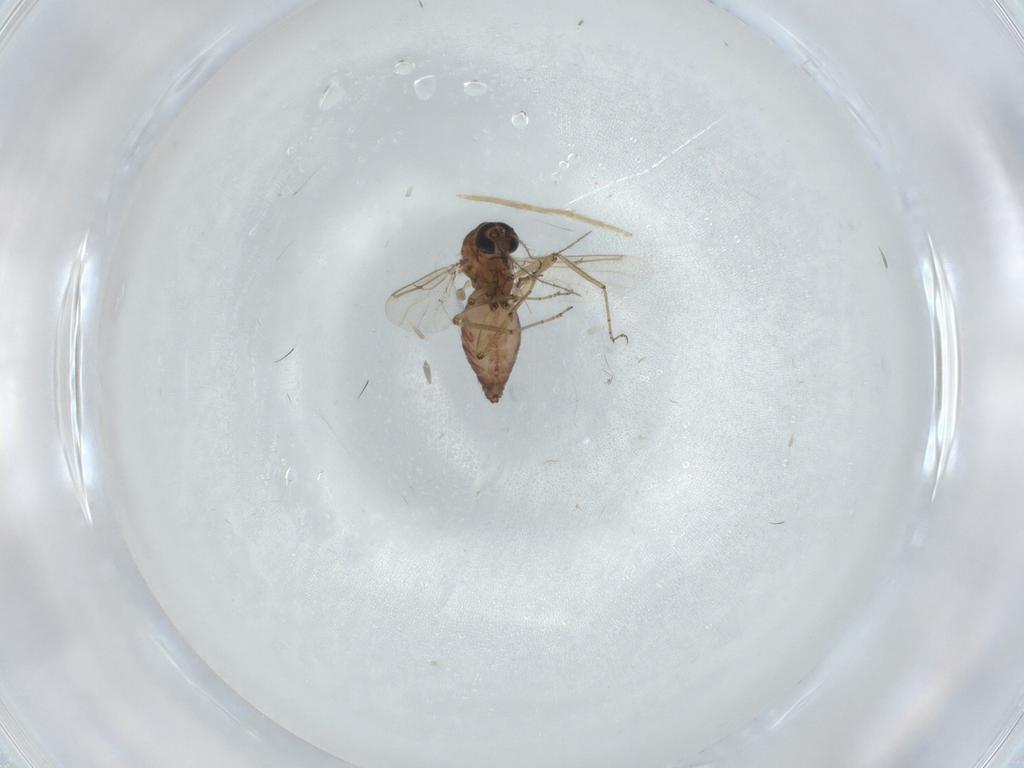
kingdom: Animalia
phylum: Arthropoda
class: Insecta
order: Diptera
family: Ceratopogonidae
